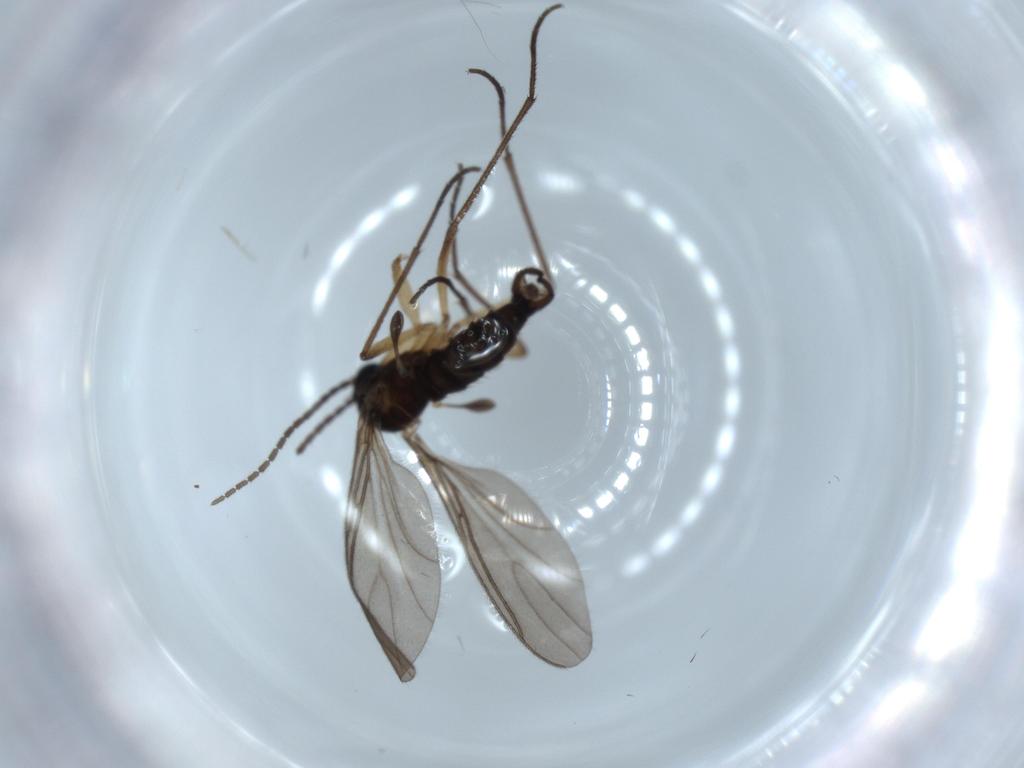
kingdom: Animalia
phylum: Arthropoda
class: Insecta
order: Diptera
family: Sciaridae
